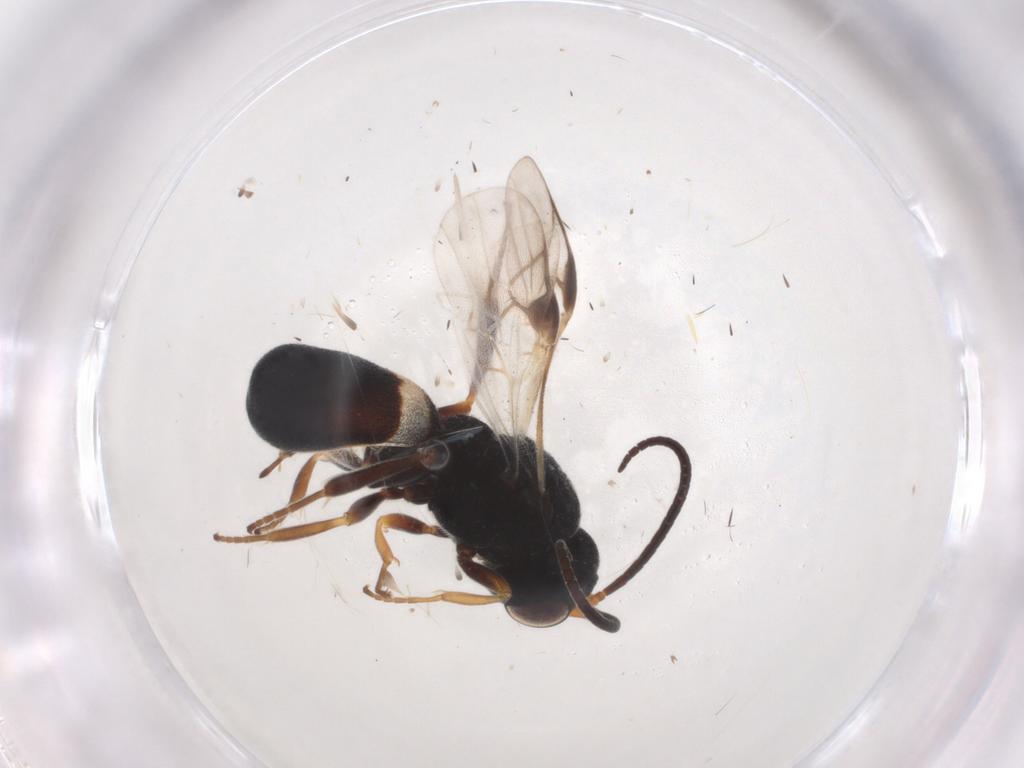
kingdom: Animalia
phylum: Arthropoda
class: Insecta
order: Hymenoptera
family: Braconidae
